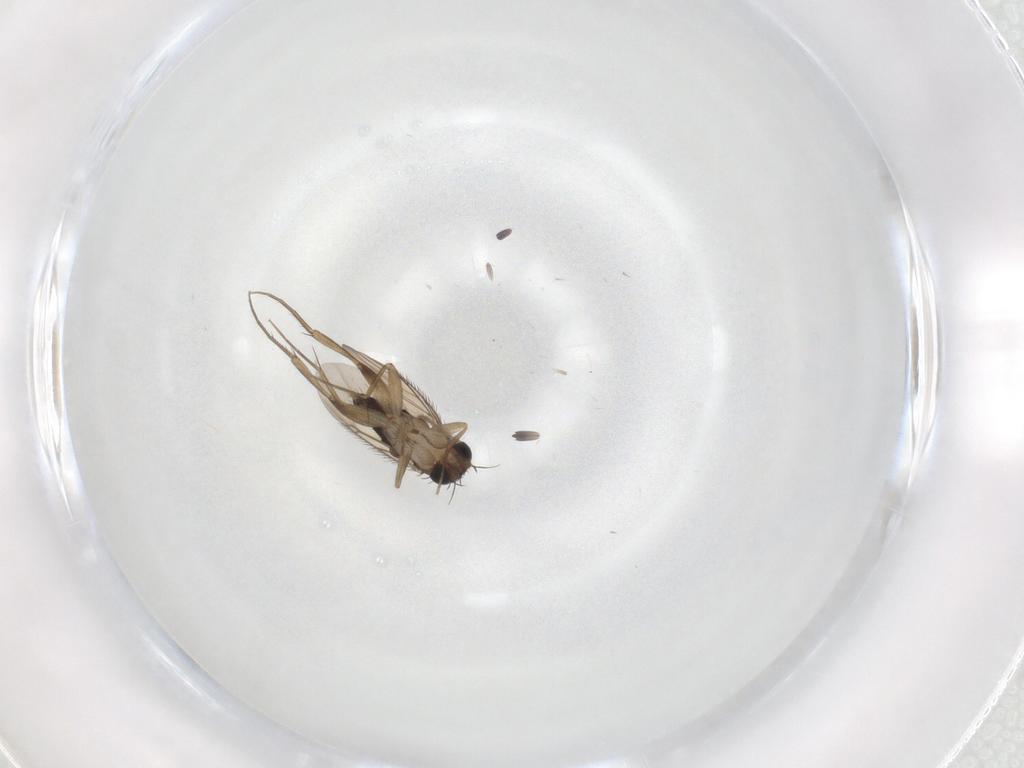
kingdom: Animalia
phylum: Arthropoda
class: Insecta
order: Diptera
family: Phoridae
